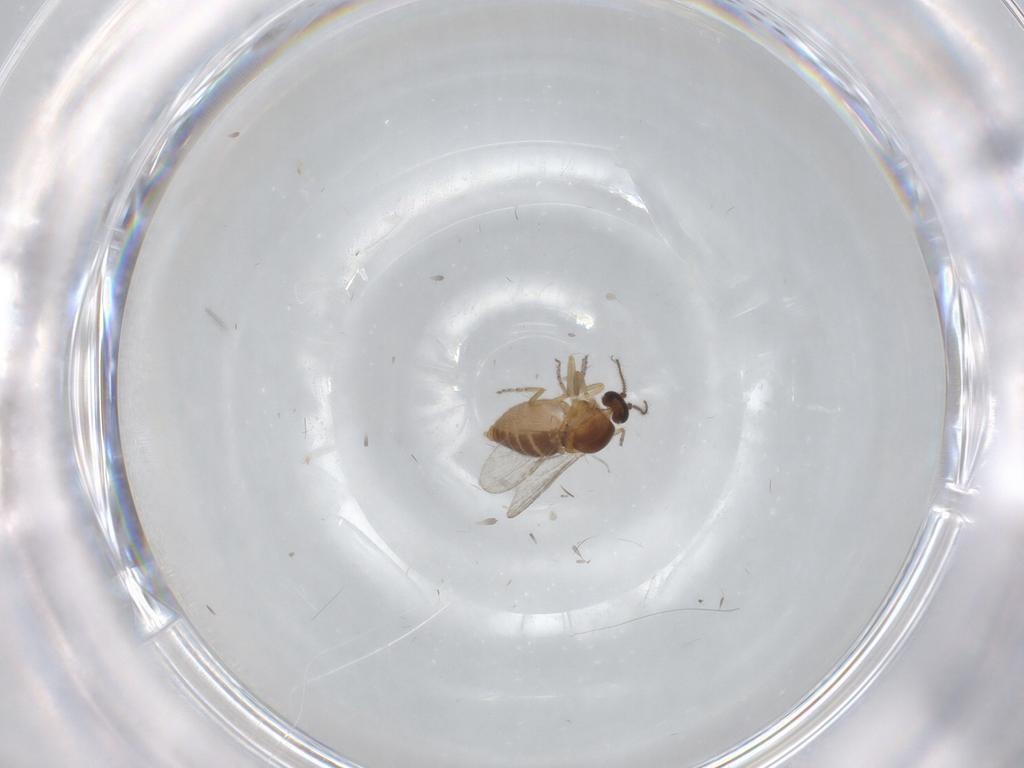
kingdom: Animalia
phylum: Arthropoda
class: Insecta
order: Diptera
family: Ceratopogonidae
